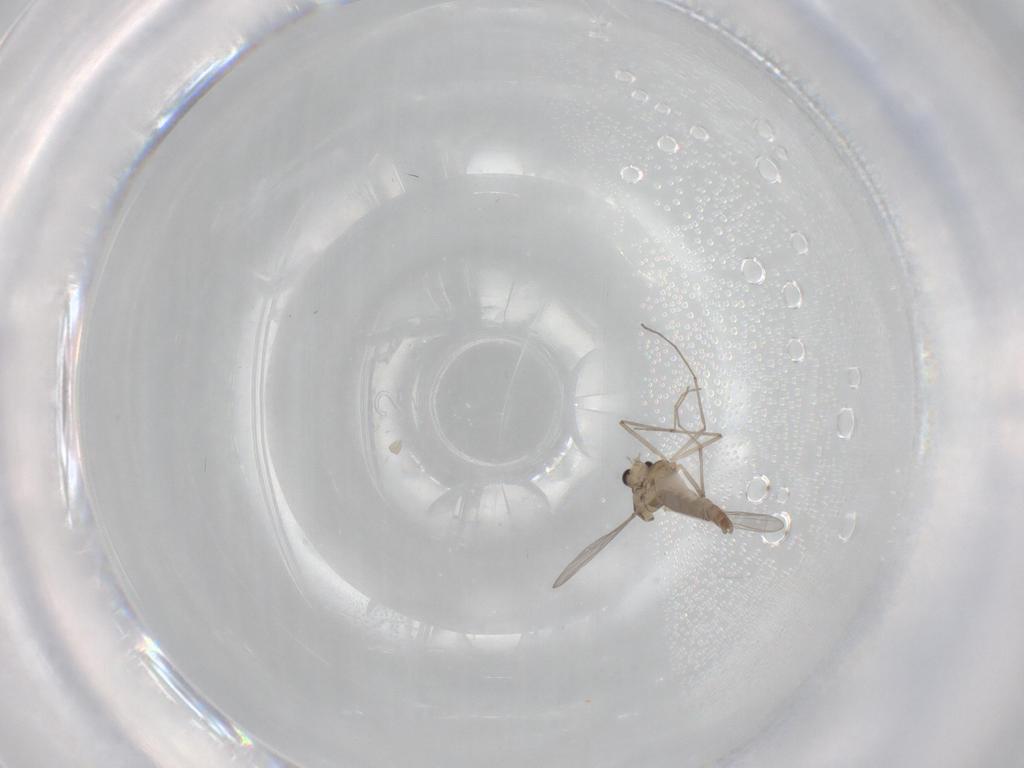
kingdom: Animalia
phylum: Arthropoda
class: Insecta
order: Diptera
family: Chironomidae
